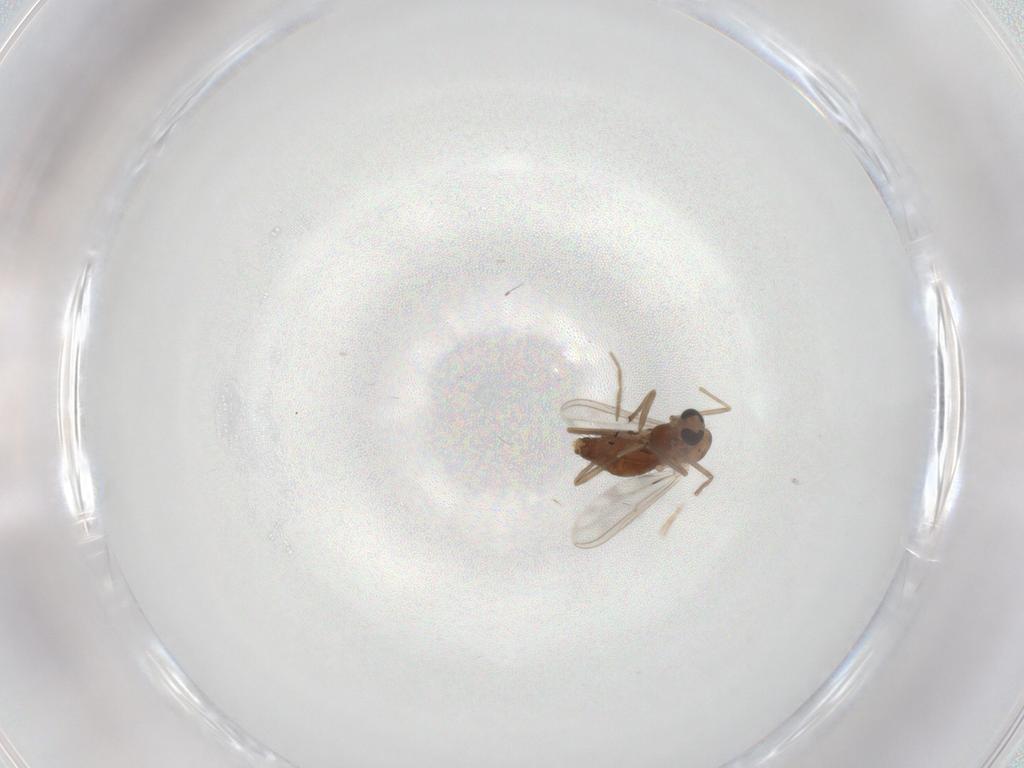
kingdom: Animalia
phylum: Arthropoda
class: Insecta
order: Diptera
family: Chironomidae
